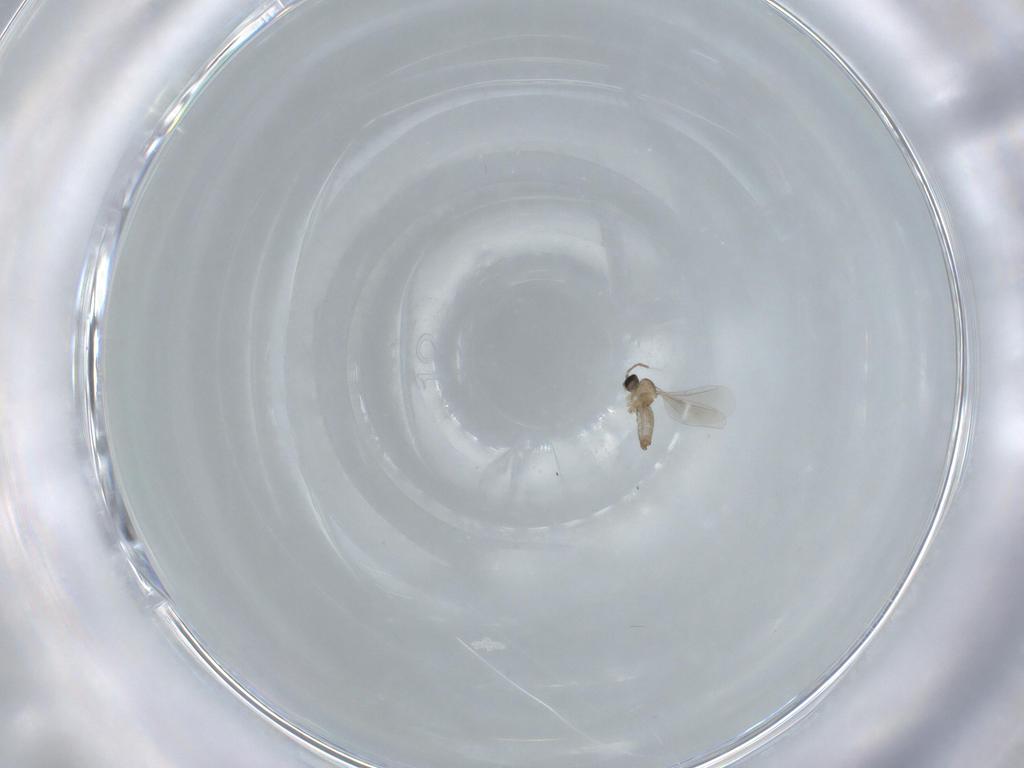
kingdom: Animalia
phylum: Arthropoda
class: Insecta
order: Diptera
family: Cecidomyiidae
